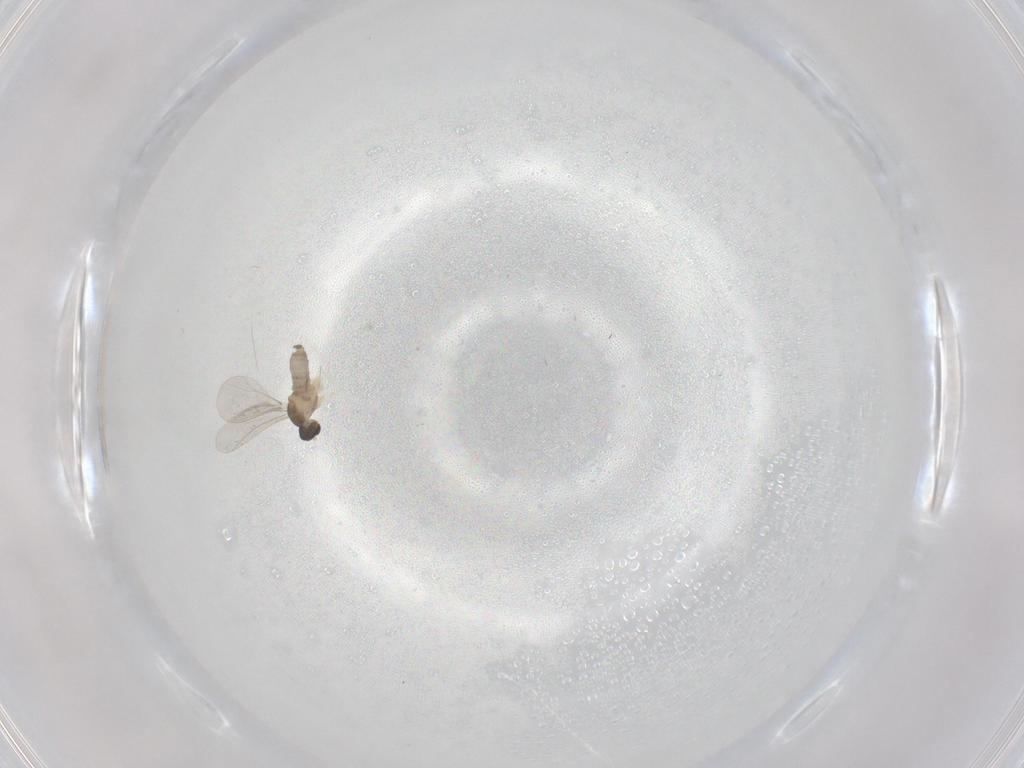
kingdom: Animalia
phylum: Arthropoda
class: Insecta
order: Diptera
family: Cecidomyiidae
